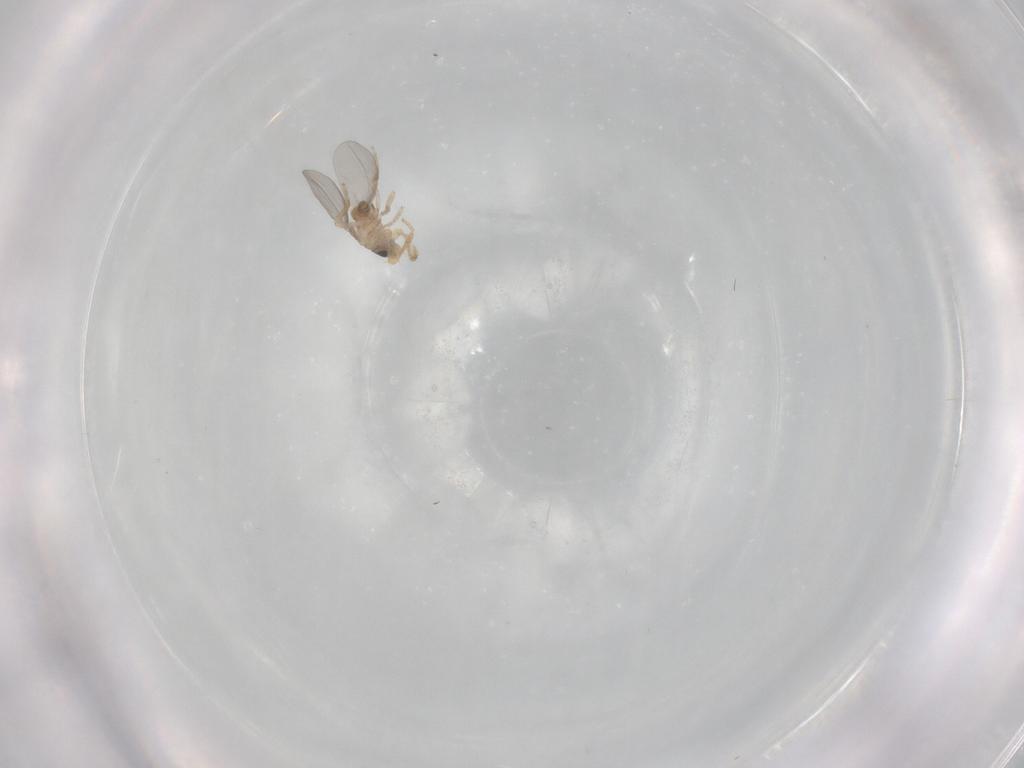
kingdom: Animalia
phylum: Arthropoda
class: Insecta
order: Diptera
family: Phoridae
